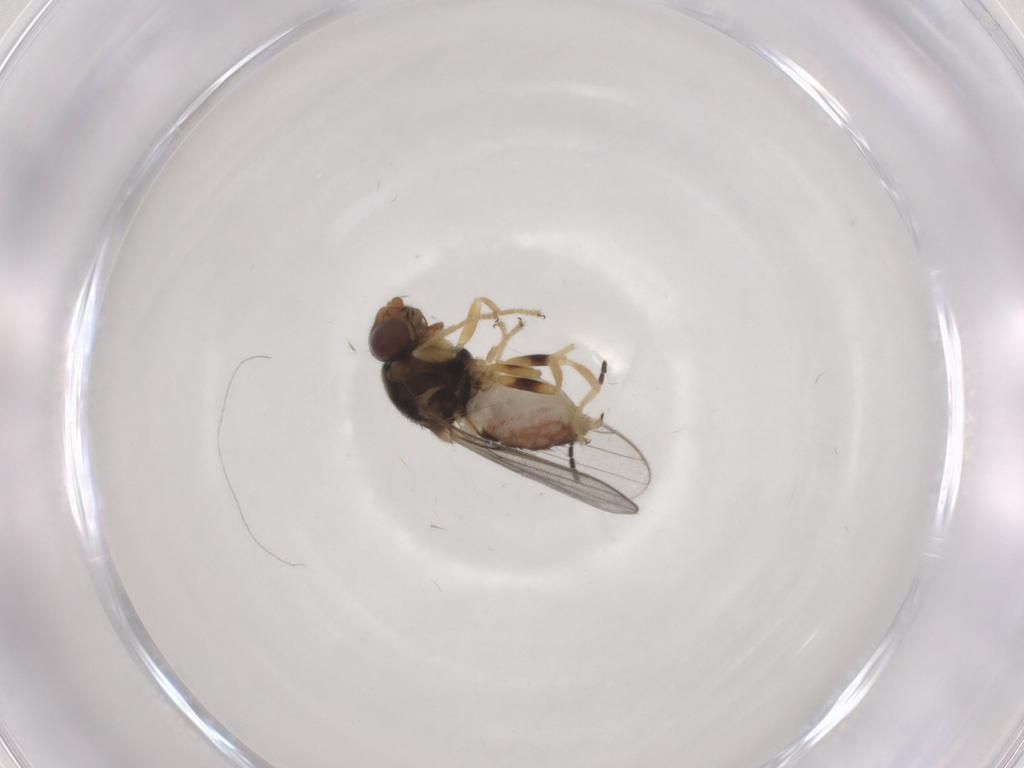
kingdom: Animalia
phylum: Arthropoda
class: Insecta
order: Diptera
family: Chloropidae
